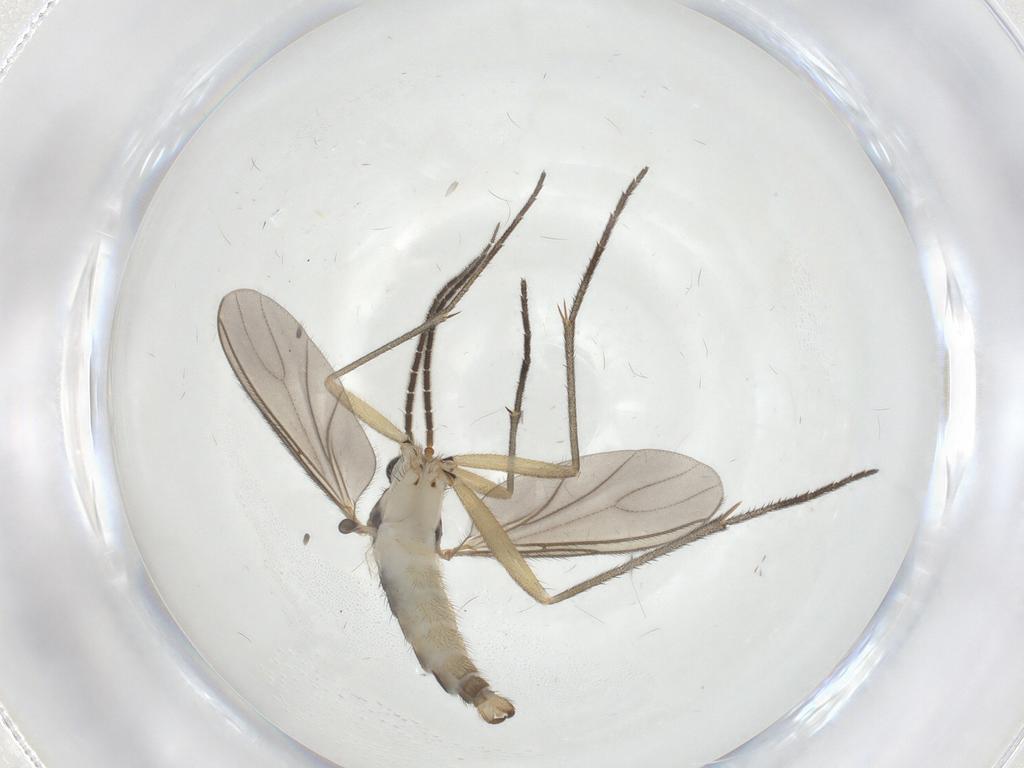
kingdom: Animalia
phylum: Arthropoda
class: Insecta
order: Diptera
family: Sciaridae
